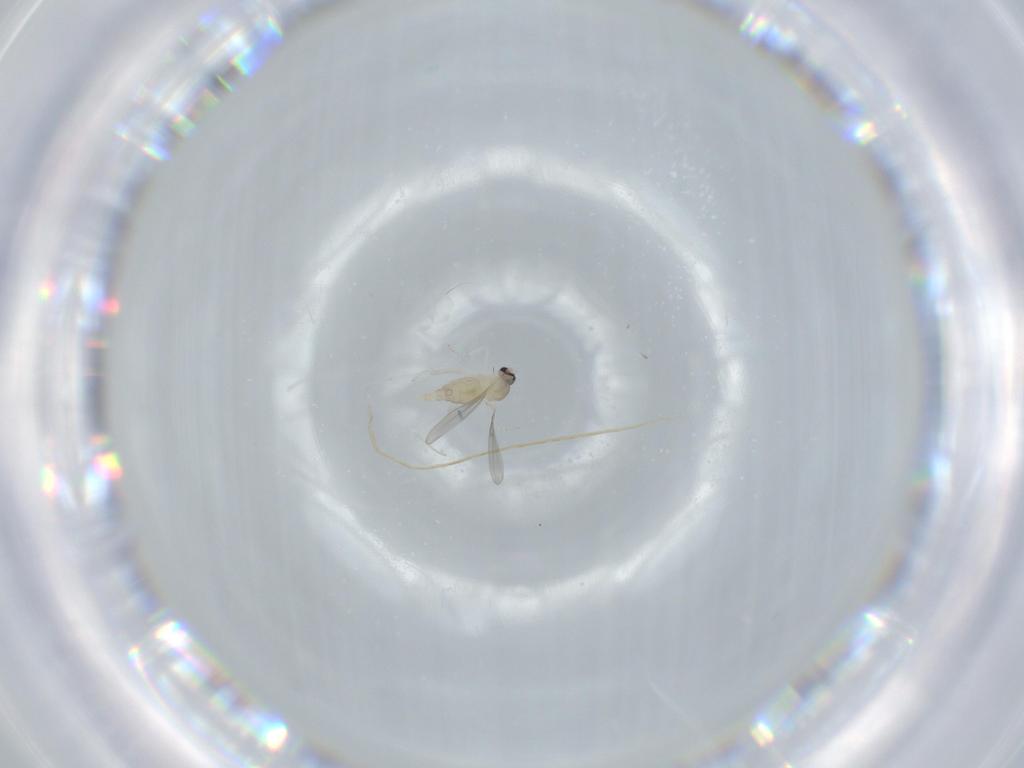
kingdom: Animalia
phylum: Arthropoda
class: Insecta
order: Diptera
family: Cecidomyiidae
